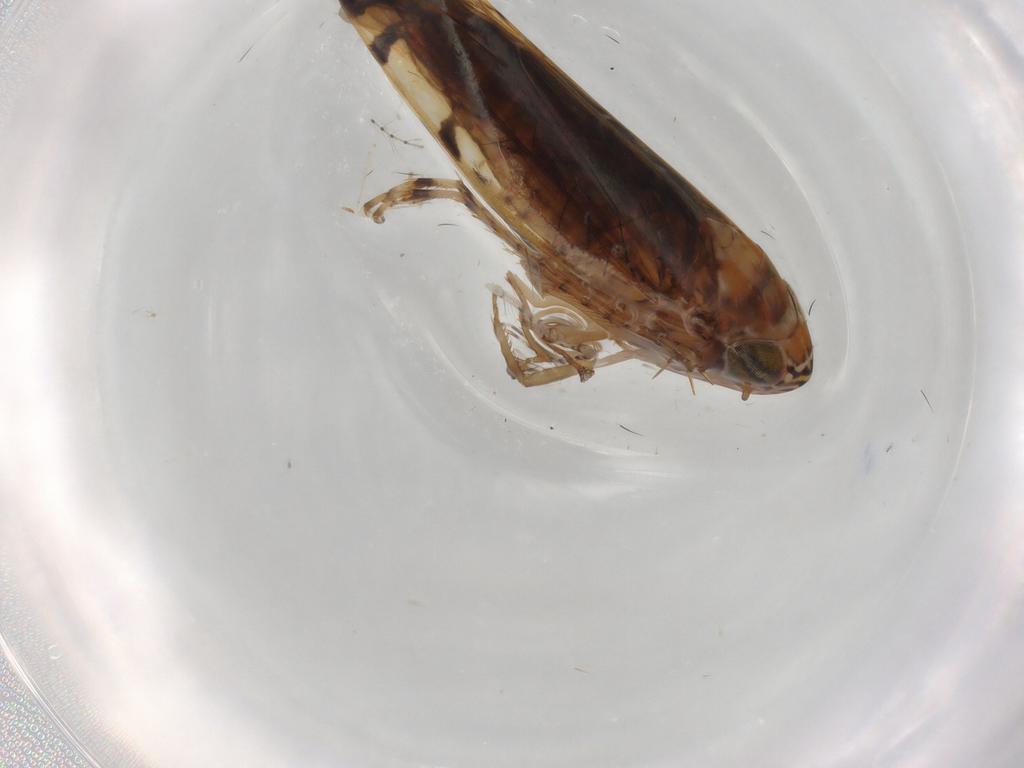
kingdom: Animalia
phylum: Arthropoda
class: Insecta
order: Hemiptera
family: Cicadellidae
